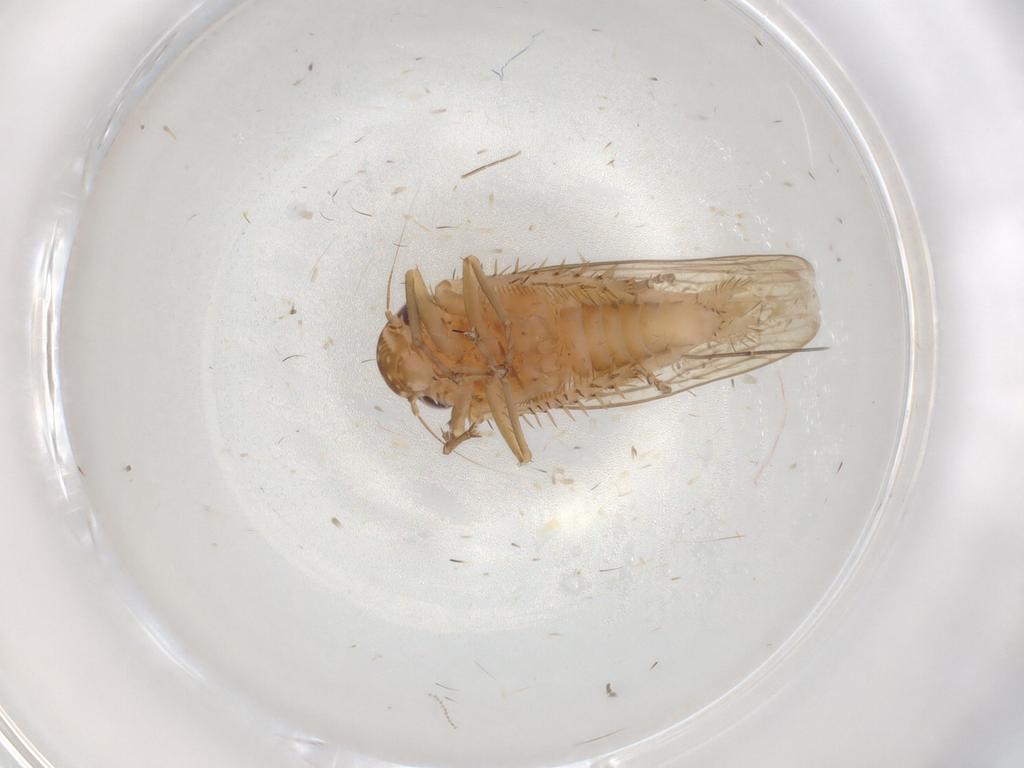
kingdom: Animalia
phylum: Arthropoda
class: Insecta
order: Hemiptera
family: Cicadellidae
